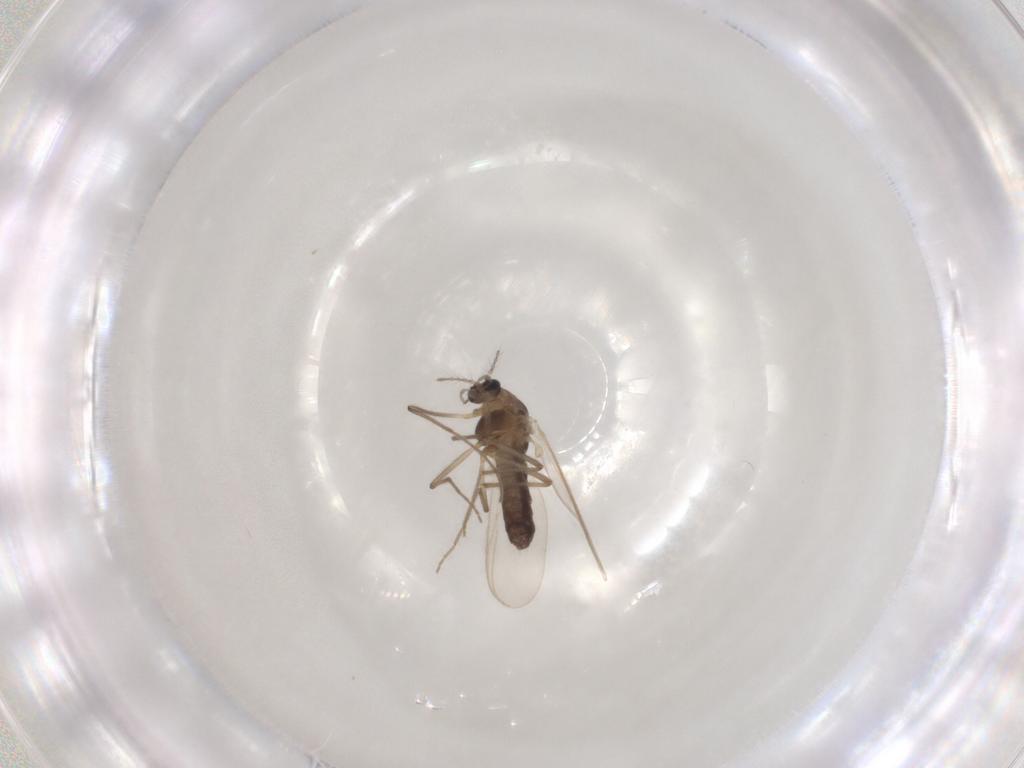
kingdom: Animalia
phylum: Arthropoda
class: Insecta
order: Diptera
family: Chironomidae
